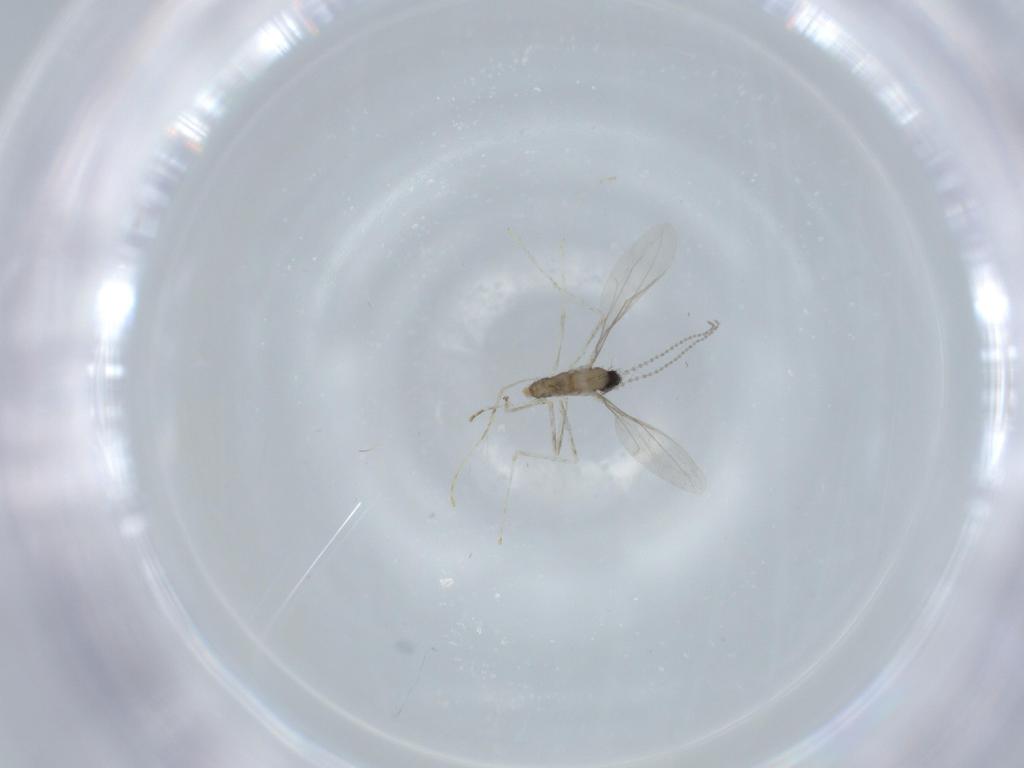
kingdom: Animalia
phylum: Arthropoda
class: Insecta
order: Diptera
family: Cecidomyiidae
